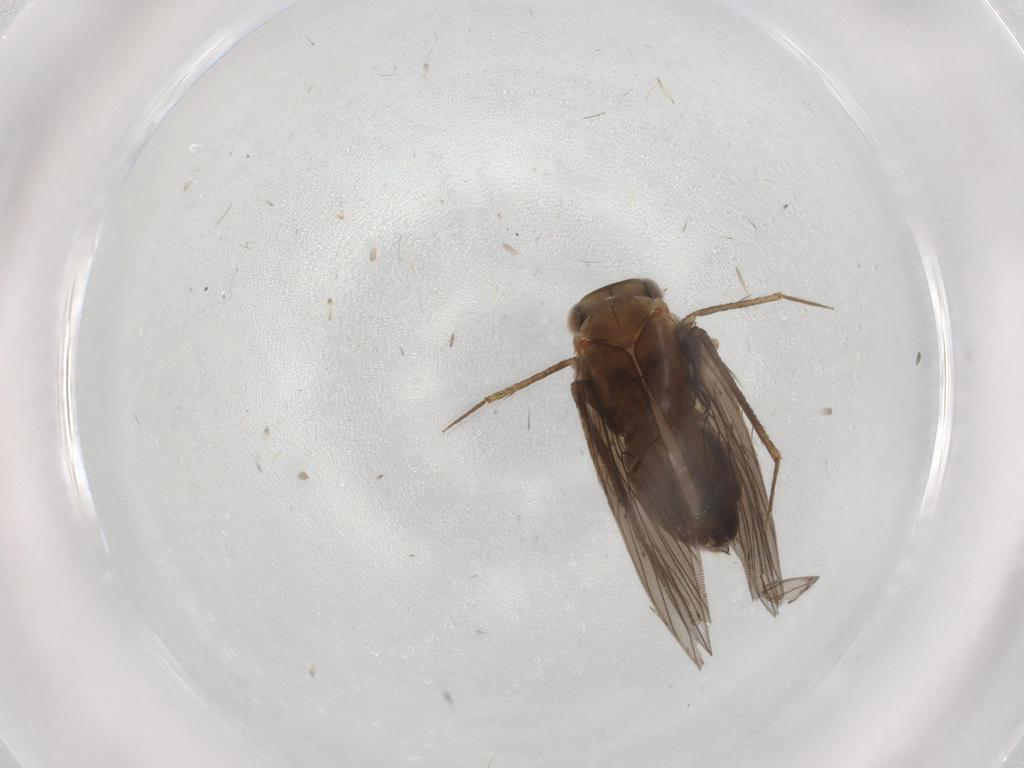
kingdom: Animalia
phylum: Arthropoda
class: Insecta
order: Psocodea
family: Lepidopsocidae
